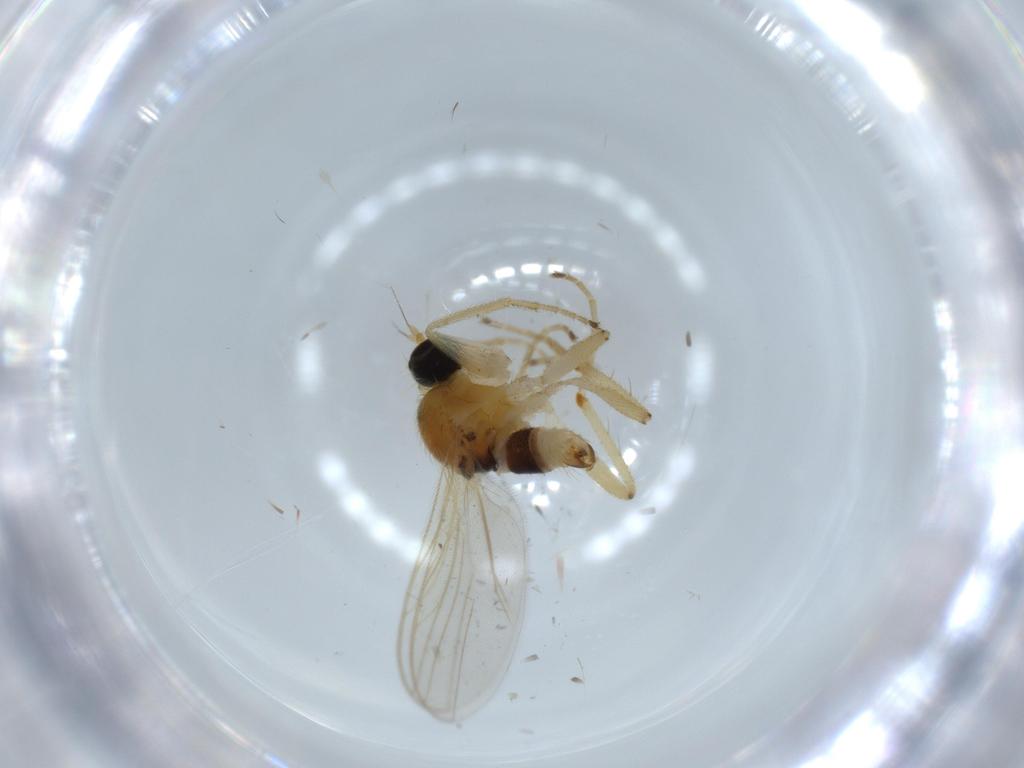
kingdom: Animalia
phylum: Arthropoda
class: Insecta
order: Diptera
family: Hybotidae
